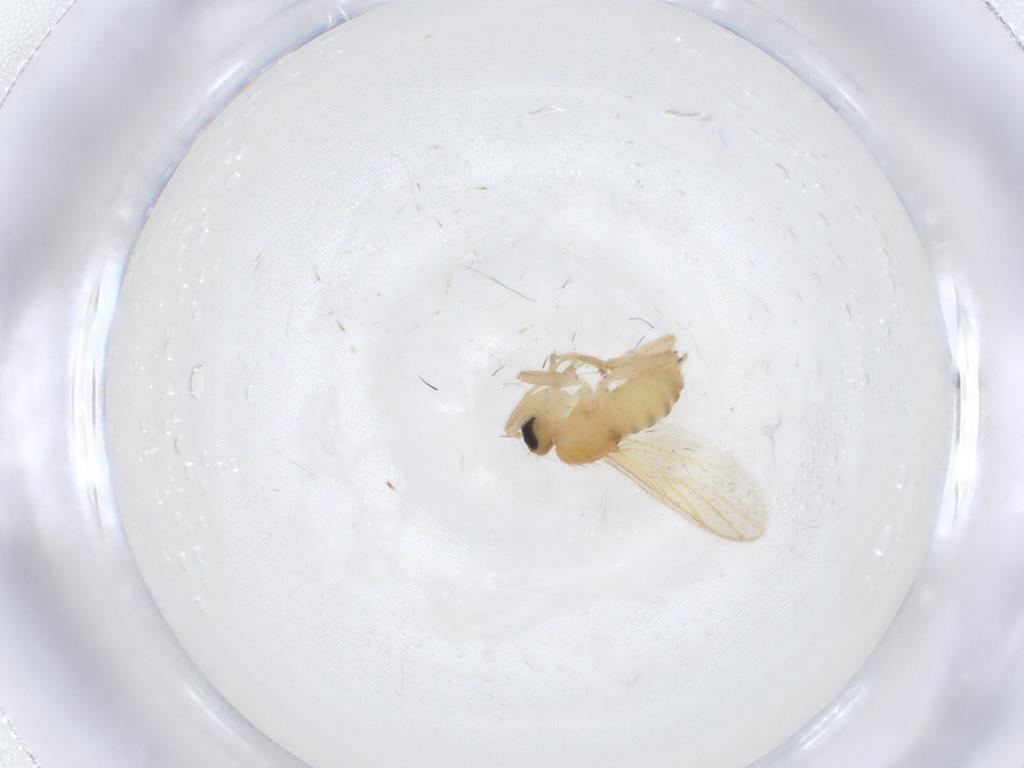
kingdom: Animalia
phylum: Arthropoda
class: Insecta
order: Diptera
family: Hybotidae
